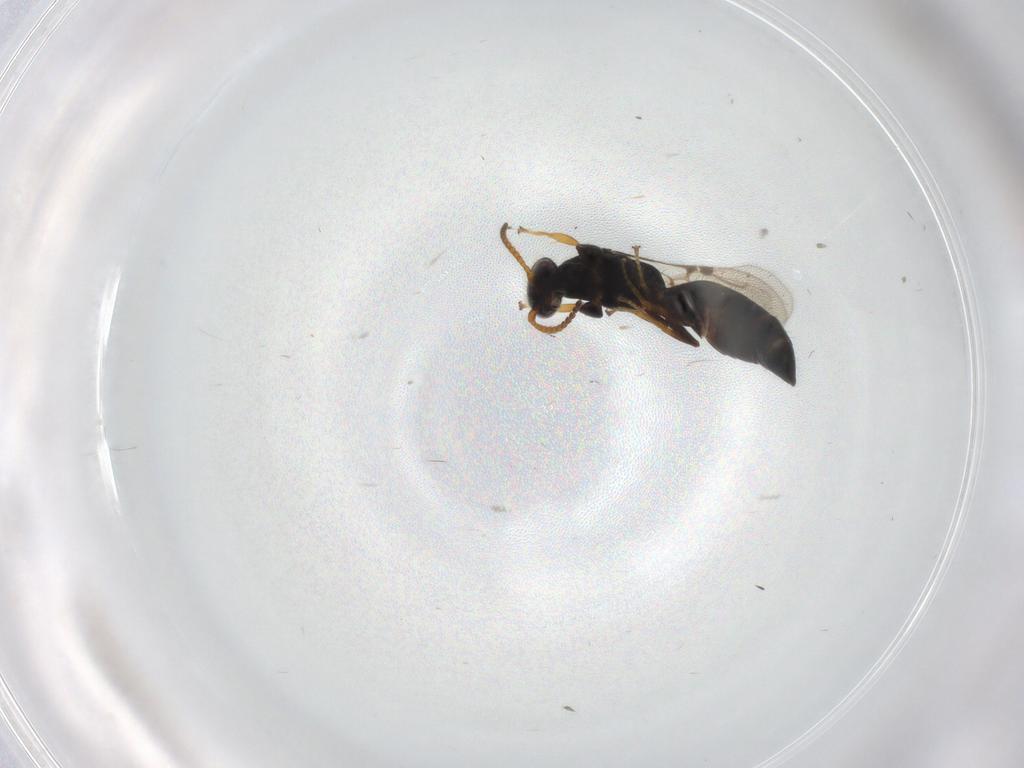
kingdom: Animalia
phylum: Arthropoda
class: Insecta
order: Hymenoptera
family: Bethylidae
